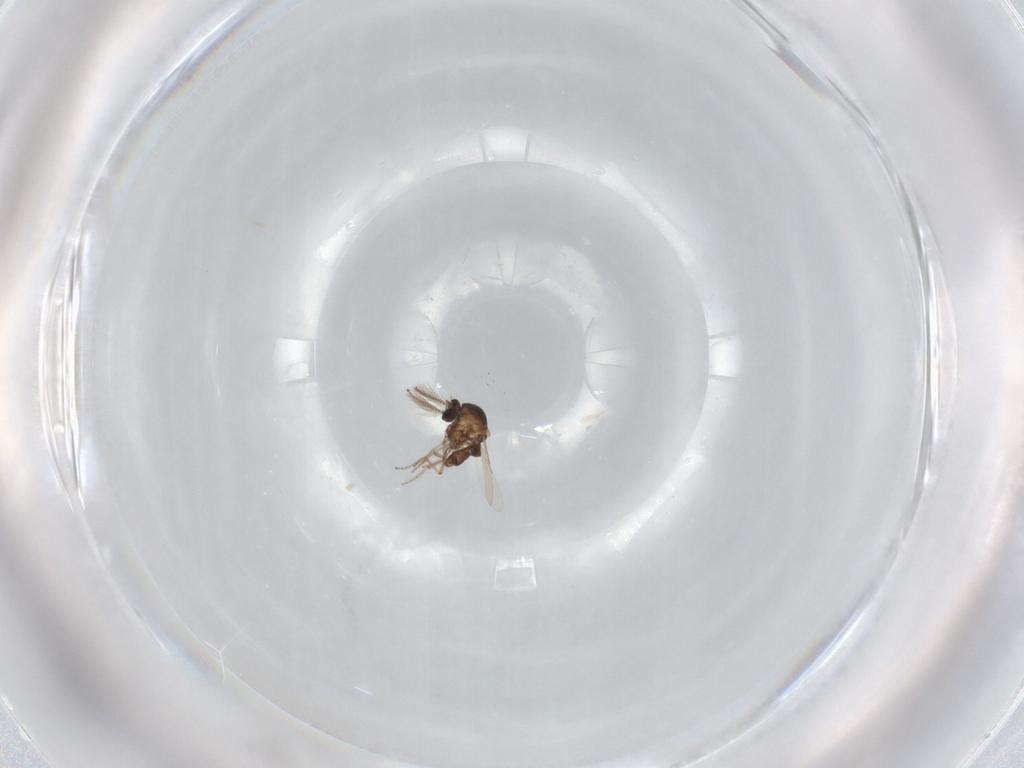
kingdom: Animalia
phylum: Arthropoda
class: Insecta
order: Diptera
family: Ceratopogonidae
